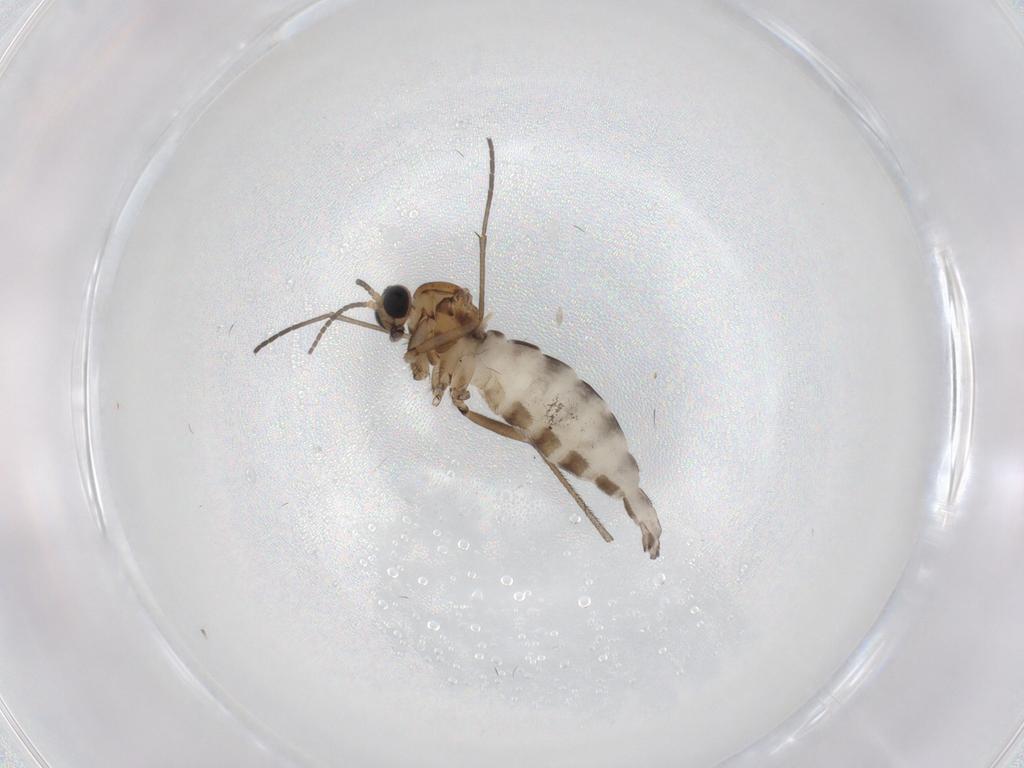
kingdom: Animalia
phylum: Arthropoda
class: Insecta
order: Diptera
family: Sciaridae
